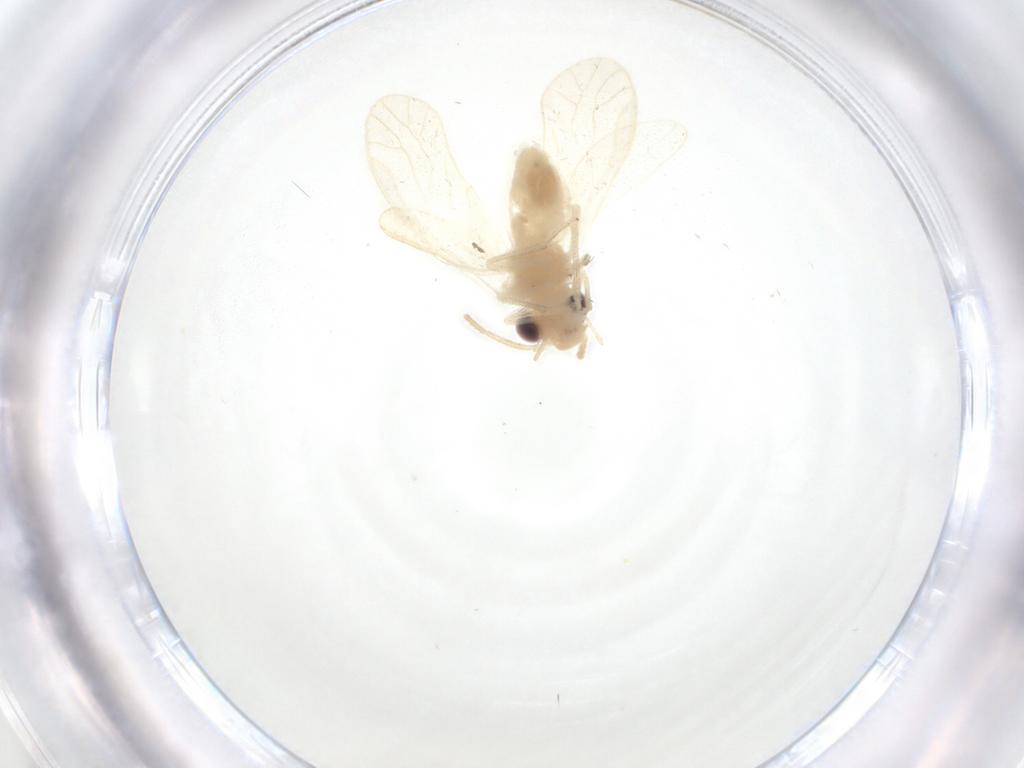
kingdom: Animalia
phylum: Arthropoda
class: Insecta
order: Psocodea
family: Caeciliusidae
